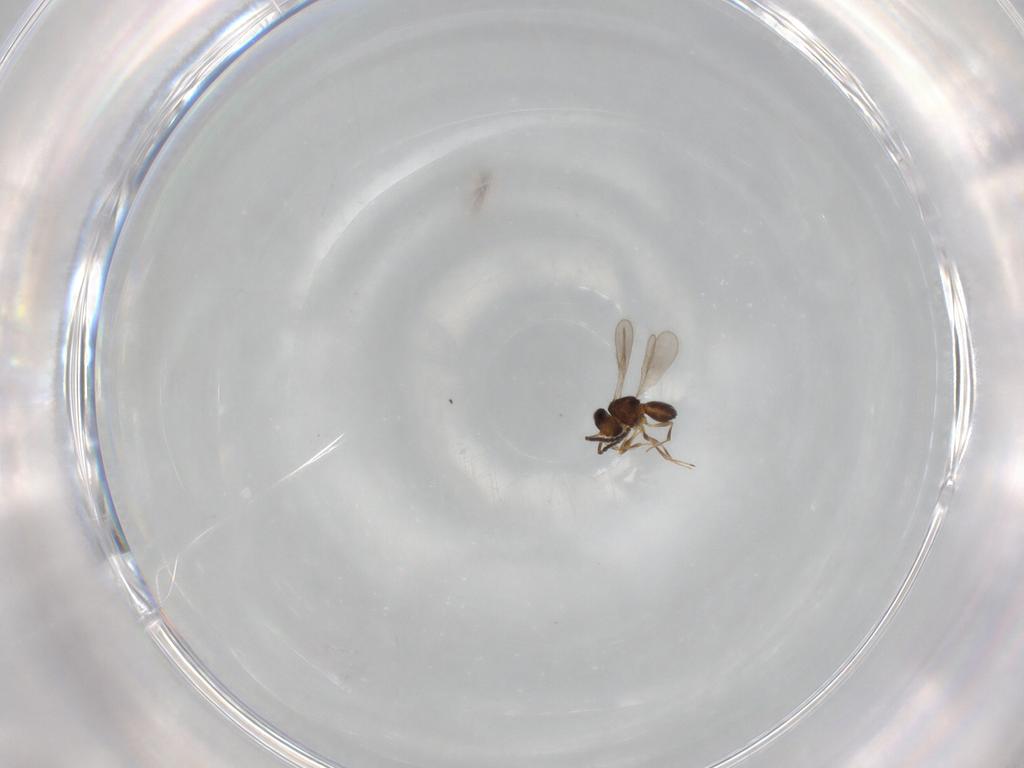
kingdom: Animalia
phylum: Arthropoda
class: Insecta
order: Hymenoptera
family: Scelionidae
